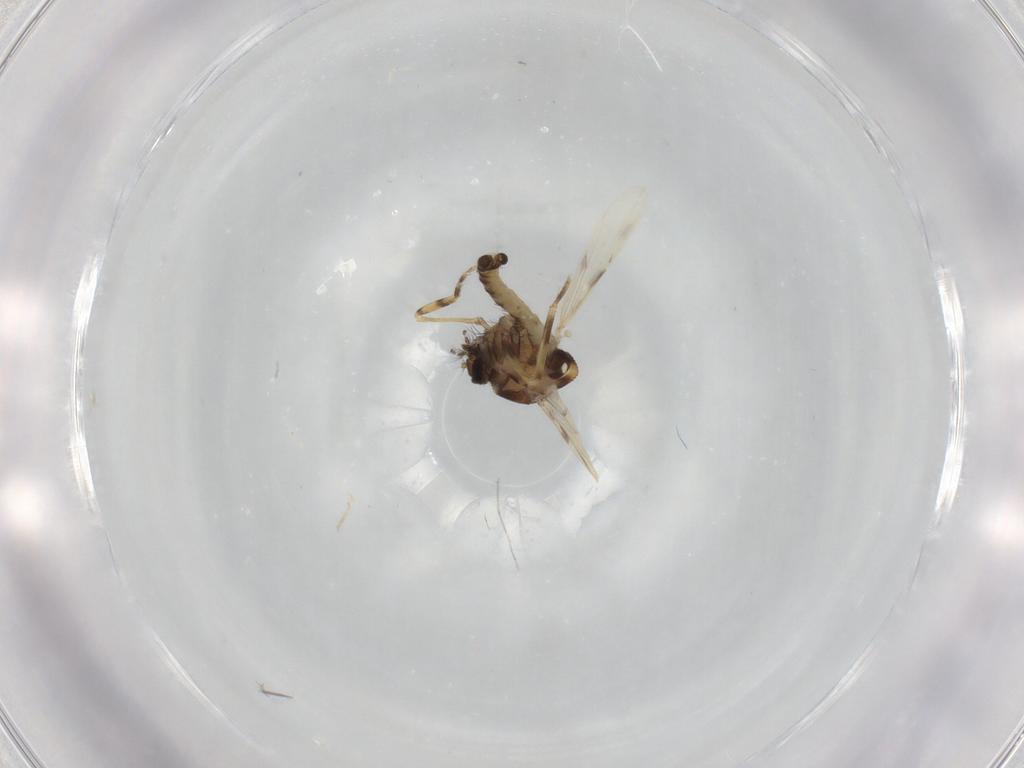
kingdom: Animalia
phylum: Arthropoda
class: Insecta
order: Diptera
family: Ceratopogonidae
